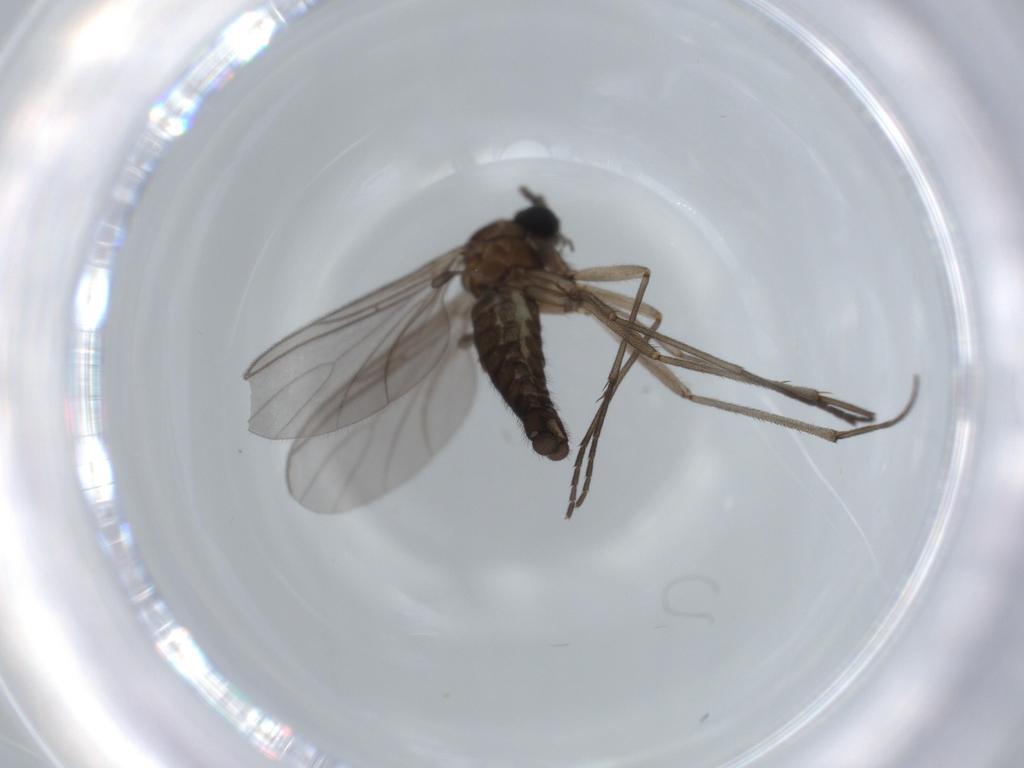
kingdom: Animalia
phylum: Arthropoda
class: Insecta
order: Diptera
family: Sciaridae
